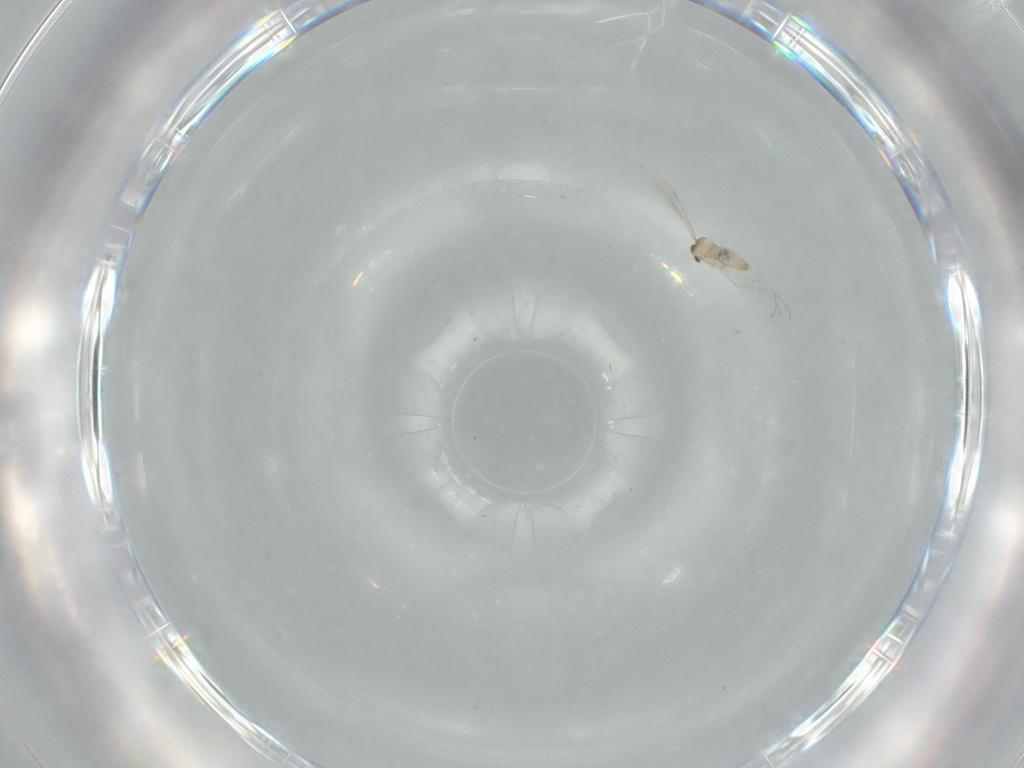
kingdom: Animalia
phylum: Arthropoda
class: Insecta
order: Diptera
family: Cecidomyiidae
